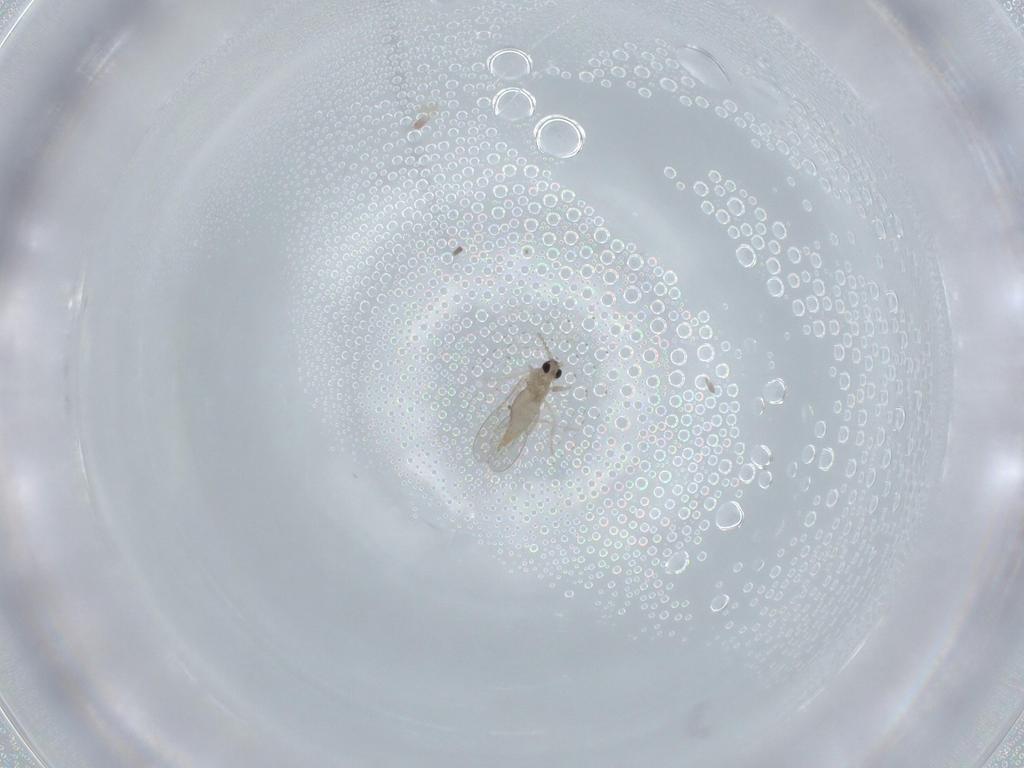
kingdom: Animalia
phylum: Arthropoda
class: Insecta
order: Diptera
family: Cecidomyiidae
